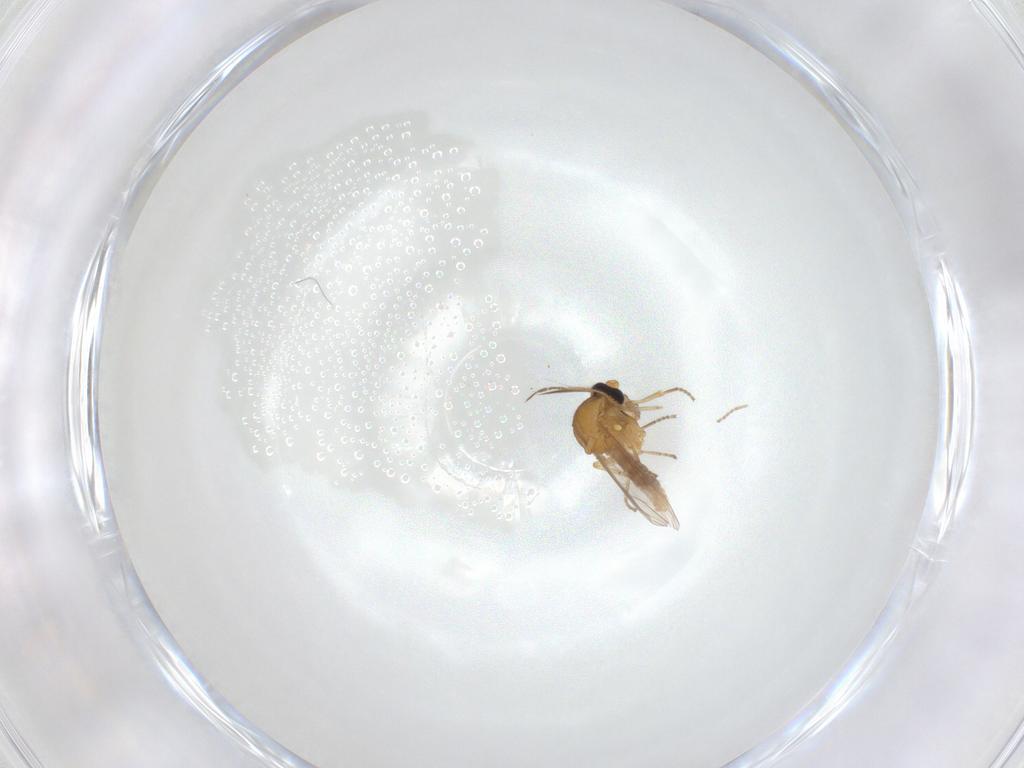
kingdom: Animalia
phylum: Arthropoda
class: Insecta
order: Diptera
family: Ceratopogonidae
